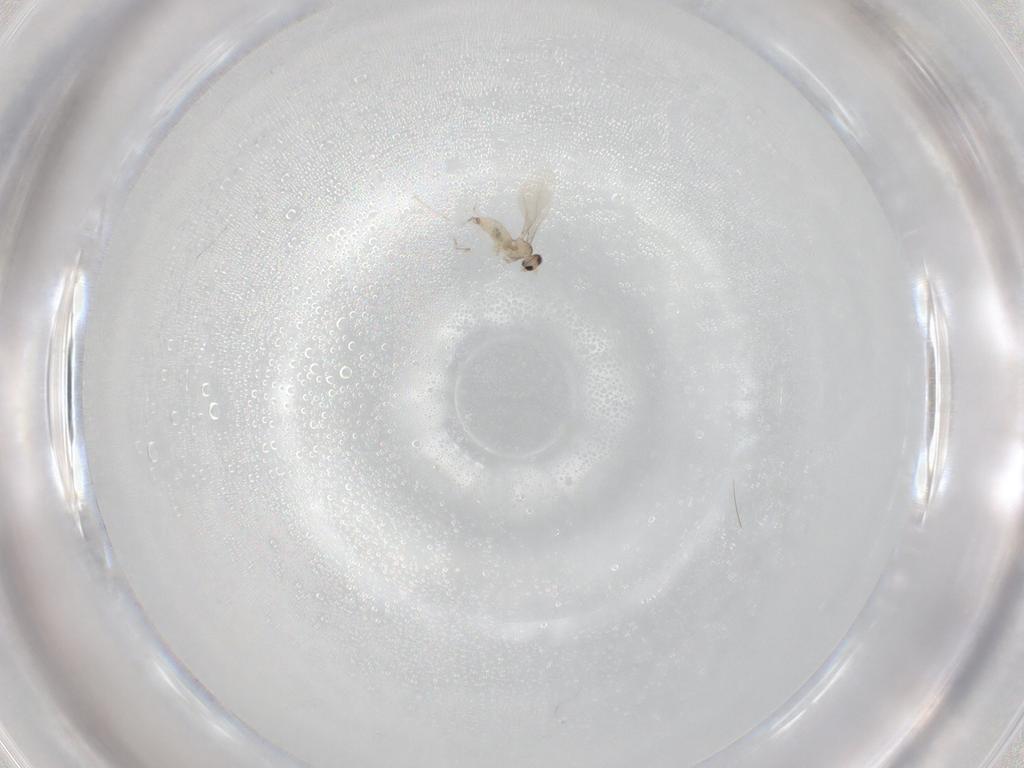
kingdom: Animalia
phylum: Arthropoda
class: Insecta
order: Diptera
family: Cecidomyiidae
